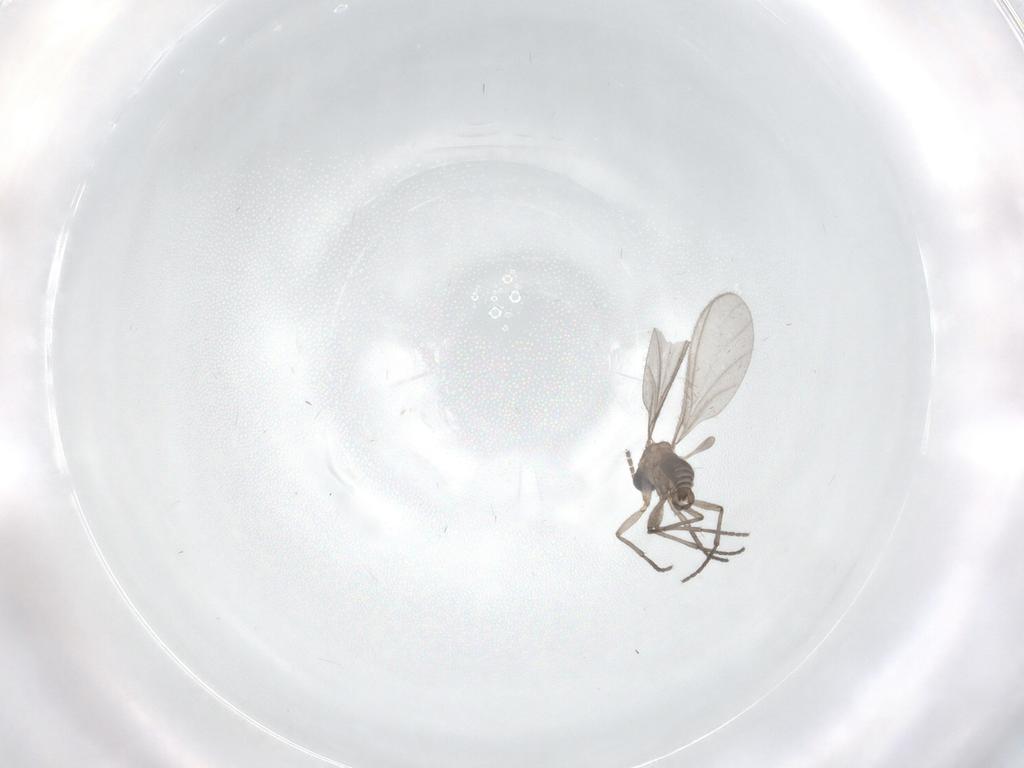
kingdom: Animalia
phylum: Arthropoda
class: Insecta
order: Diptera
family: Sciaridae
